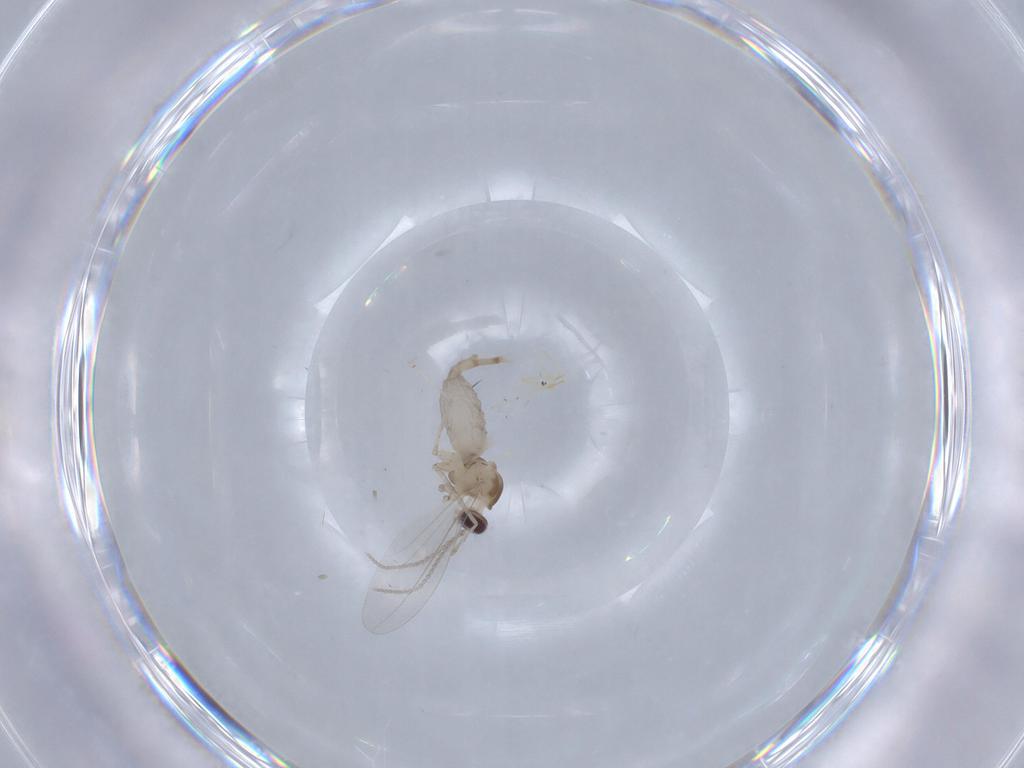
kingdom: Animalia
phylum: Arthropoda
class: Insecta
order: Diptera
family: Cecidomyiidae
